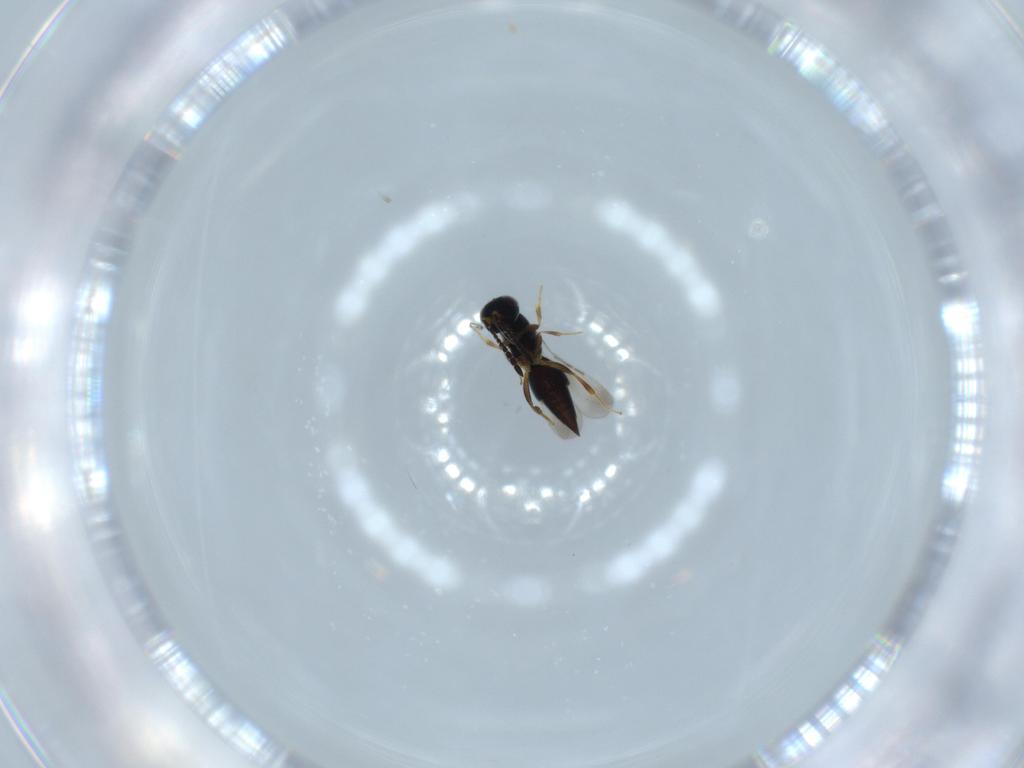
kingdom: Animalia
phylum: Arthropoda
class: Insecta
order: Hymenoptera
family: Ceraphronidae
